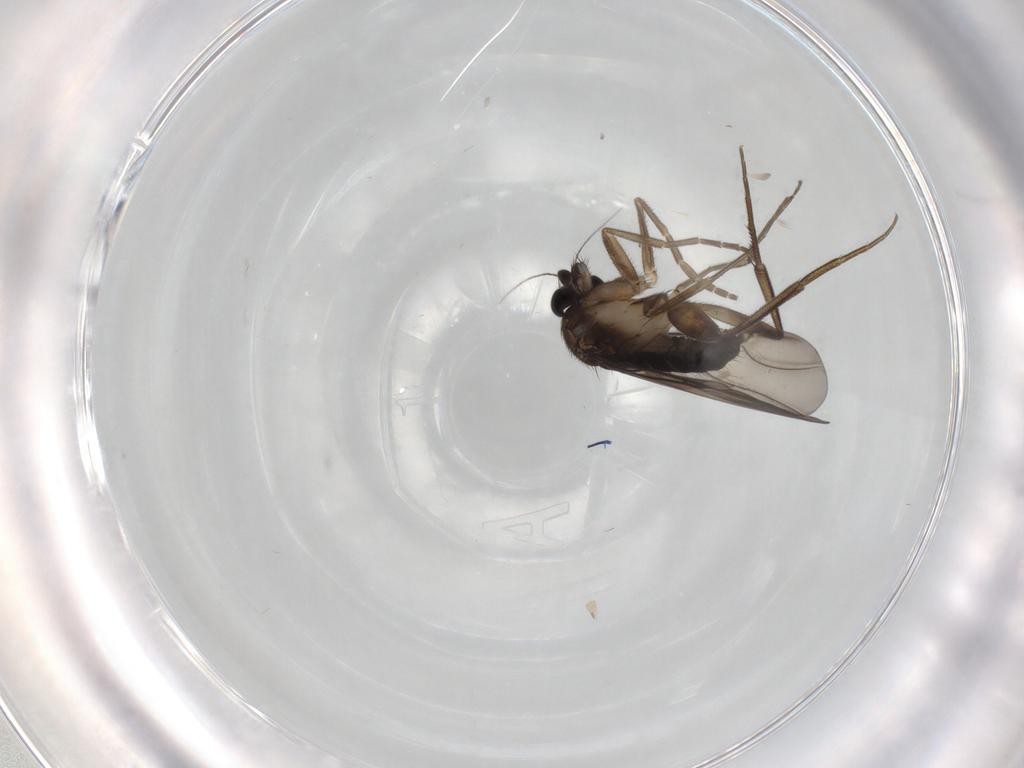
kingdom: Animalia
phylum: Arthropoda
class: Insecta
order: Diptera
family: Phoridae
